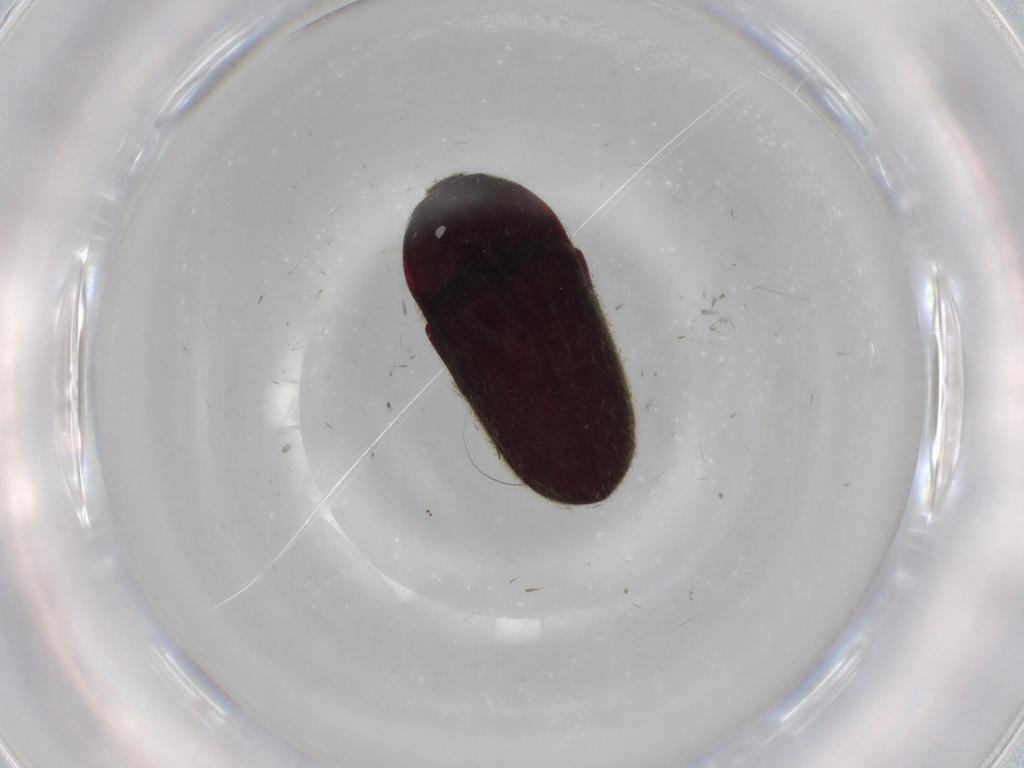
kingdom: Animalia
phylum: Arthropoda
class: Insecta
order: Coleoptera
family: Throscidae
